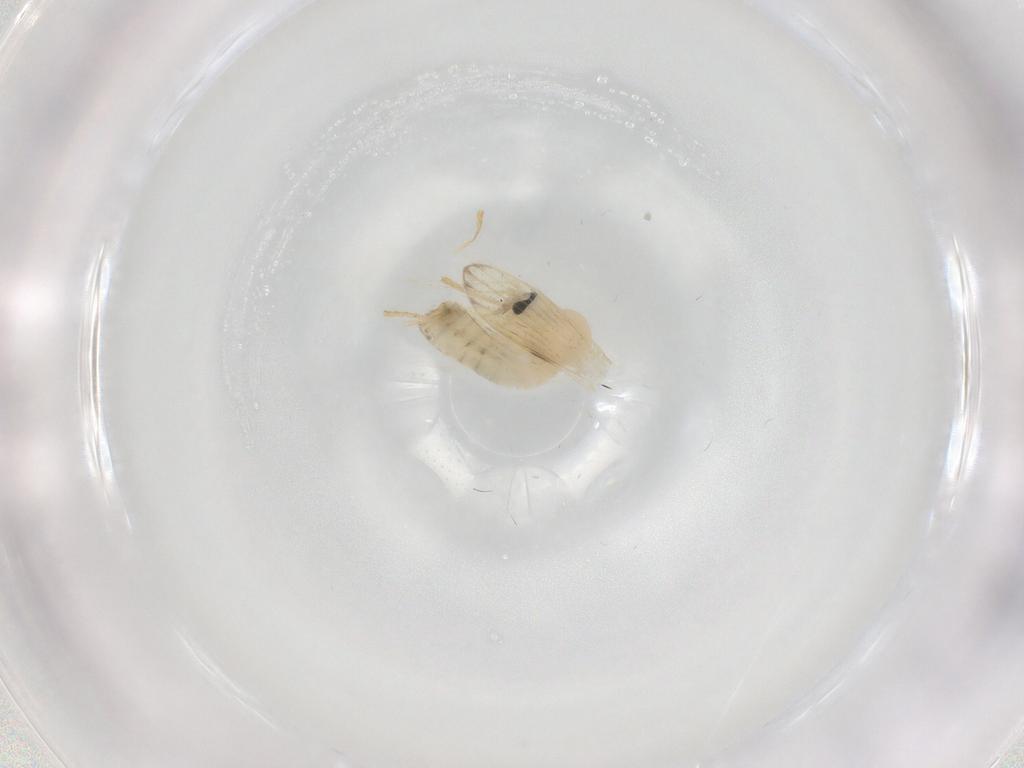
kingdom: Animalia
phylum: Arthropoda
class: Insecta
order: Diptera
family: Psychodidae
